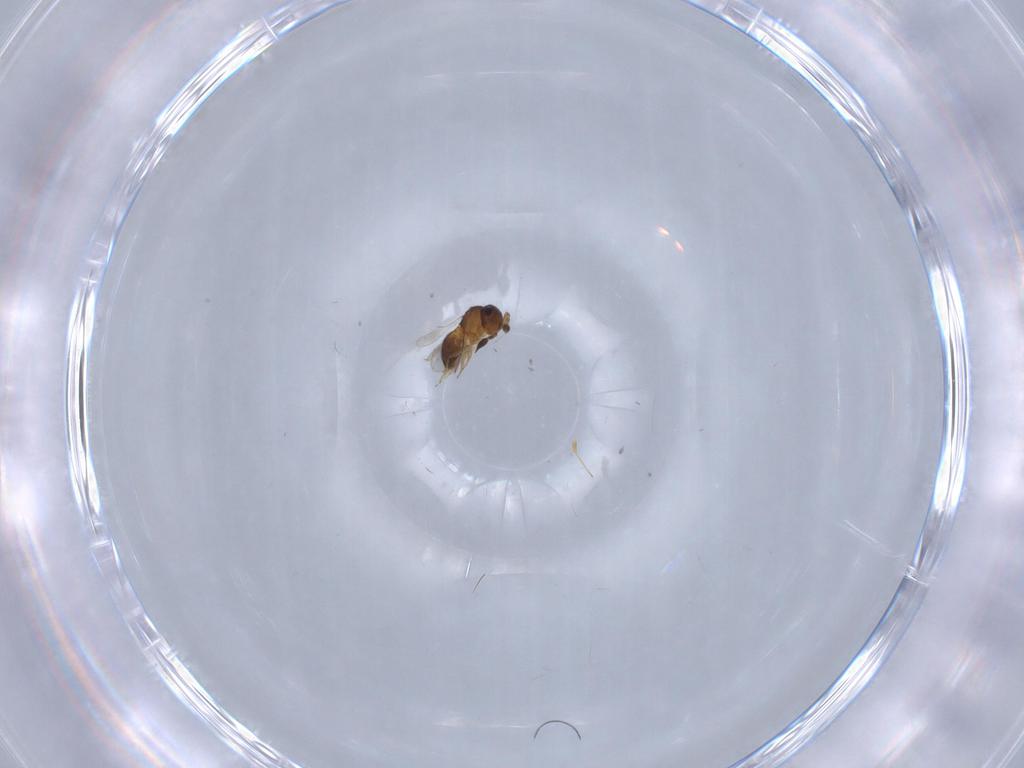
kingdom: Animalia
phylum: Arthropoda
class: Insecta
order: Hymenoptera
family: Scelionidae
